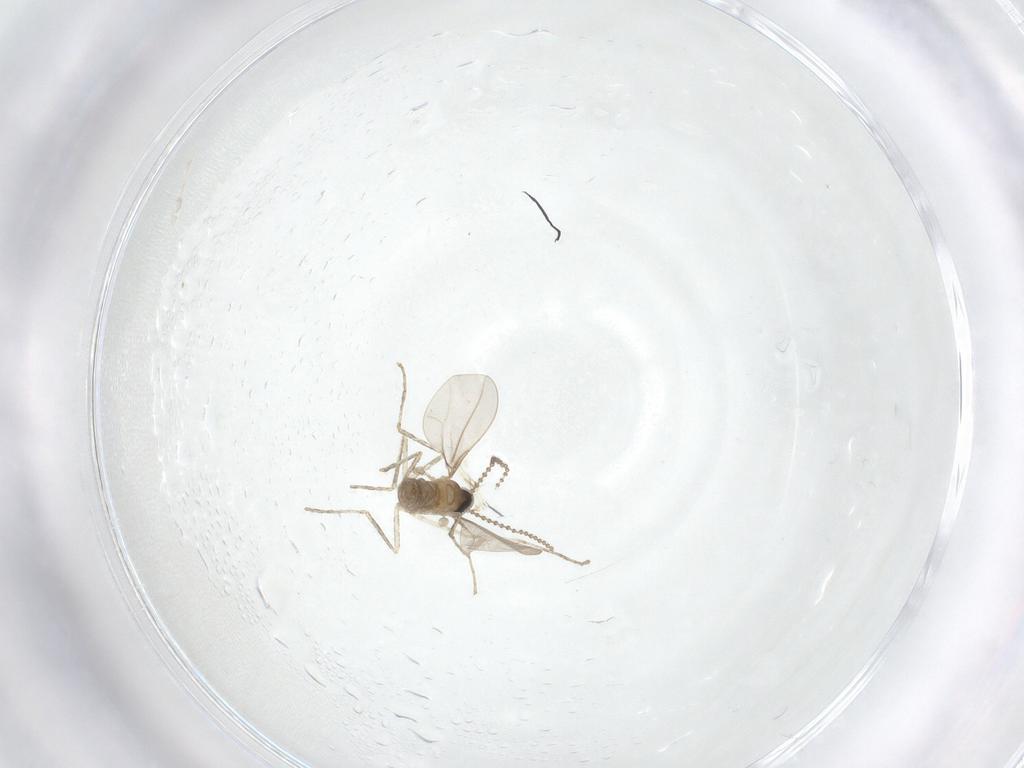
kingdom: Animalia
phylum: Arthropoda
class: Insecta
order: Diptera
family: Cecidomyiidae
